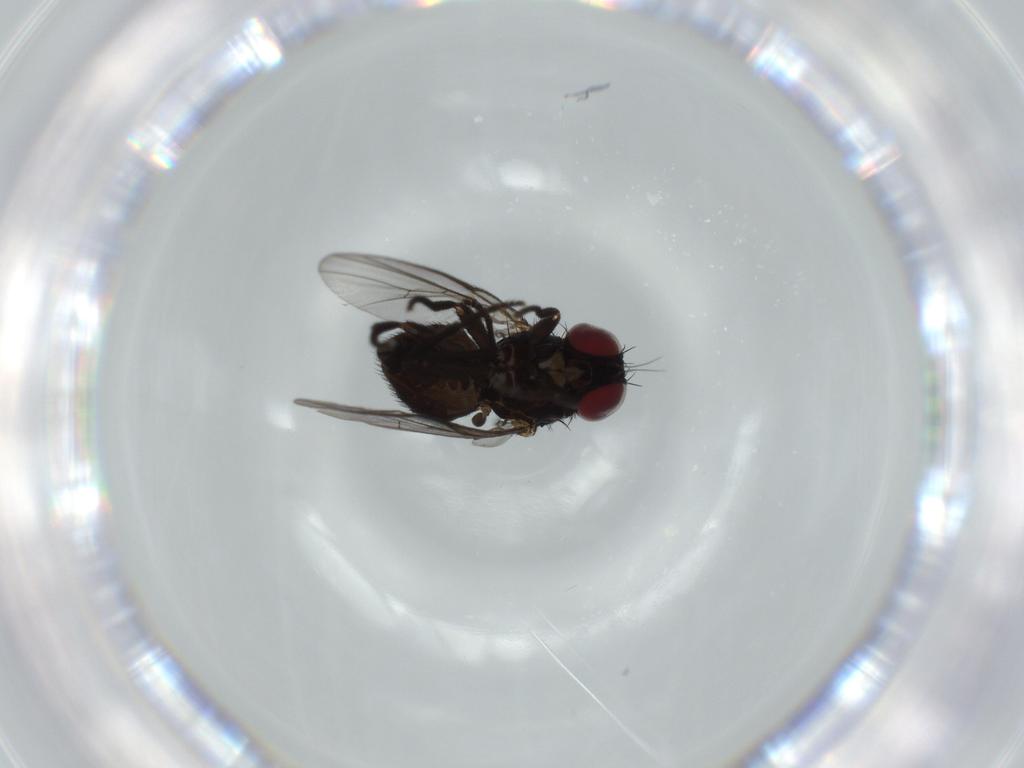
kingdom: Animalia
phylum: Arthropoda
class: Insecta
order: Diptera
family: Agromyzidae
